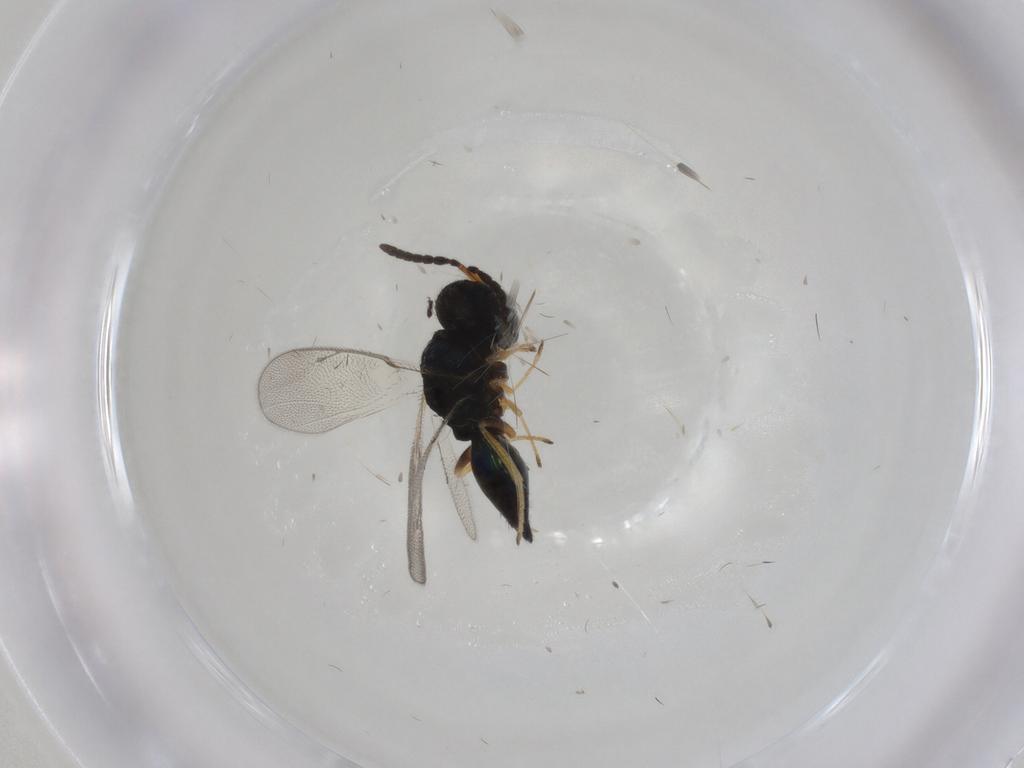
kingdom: Animalia
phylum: Arthropoda
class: Insecta
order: Hymenoptera
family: Pteromalidae
